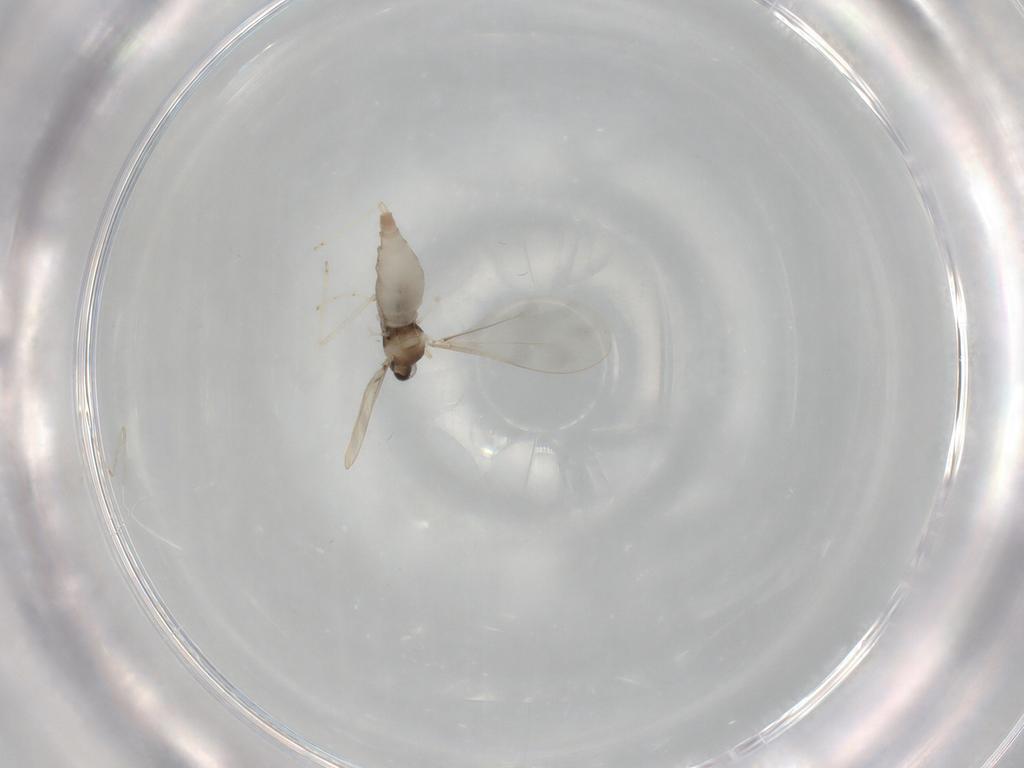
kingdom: Animalia
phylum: Arthropoda
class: Insecta
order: Diptera
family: Cecidomyiidae
